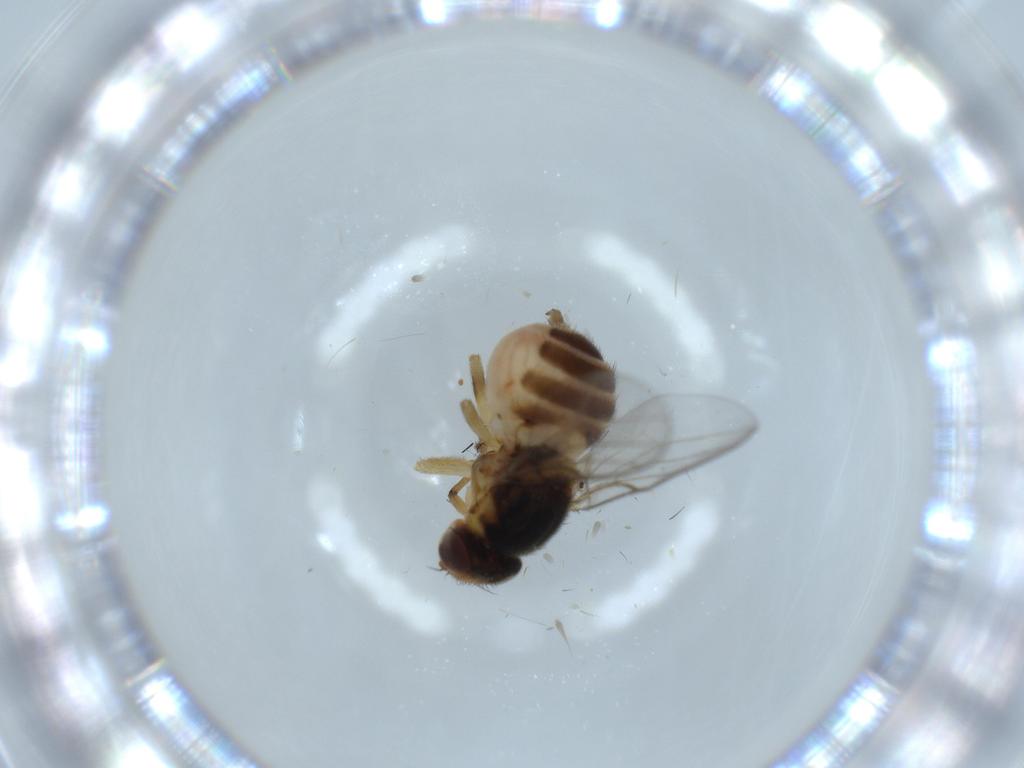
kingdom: Animalia
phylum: Arthropoda
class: Insecta
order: Diptera
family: Chloropidae
